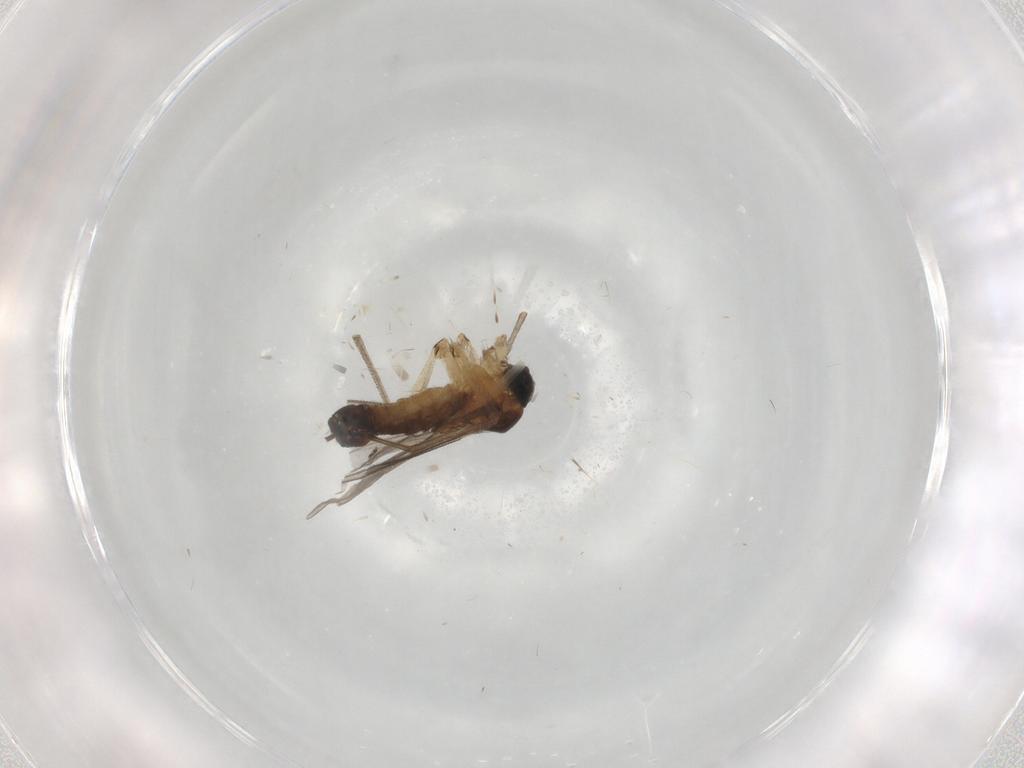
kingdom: Animalia
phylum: Arthropoda
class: Insecta
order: Diptera
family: Sciaridae
